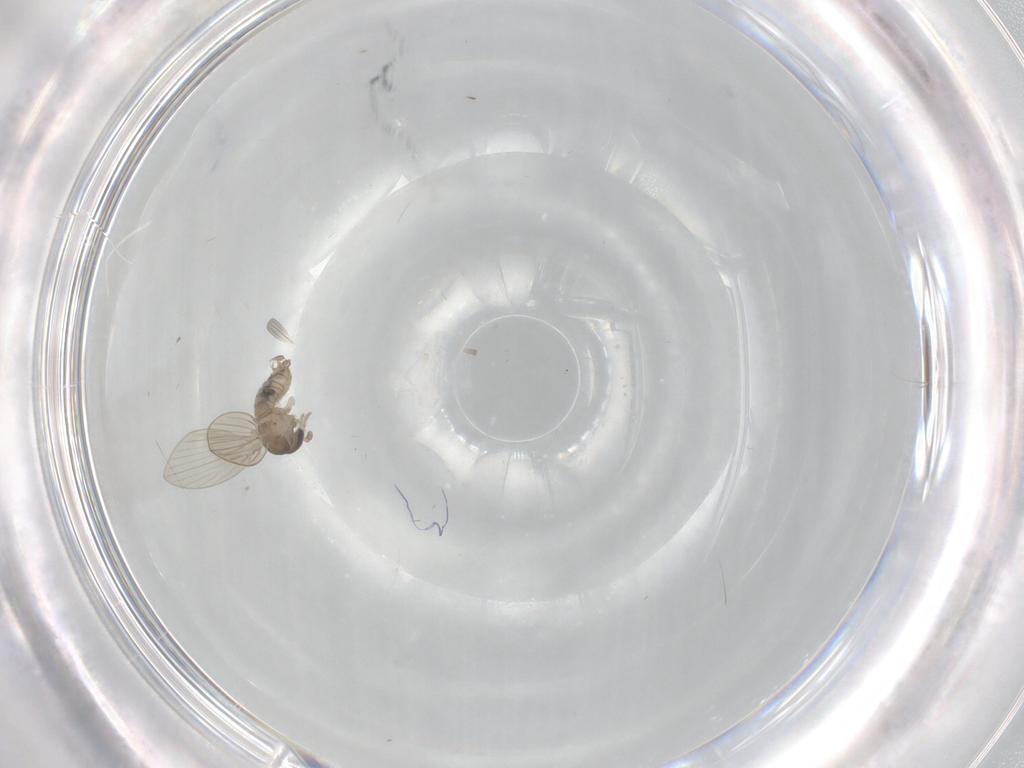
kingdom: Animalia
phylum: Arthropoda
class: Insecta
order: Diptera
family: Psychodidae
